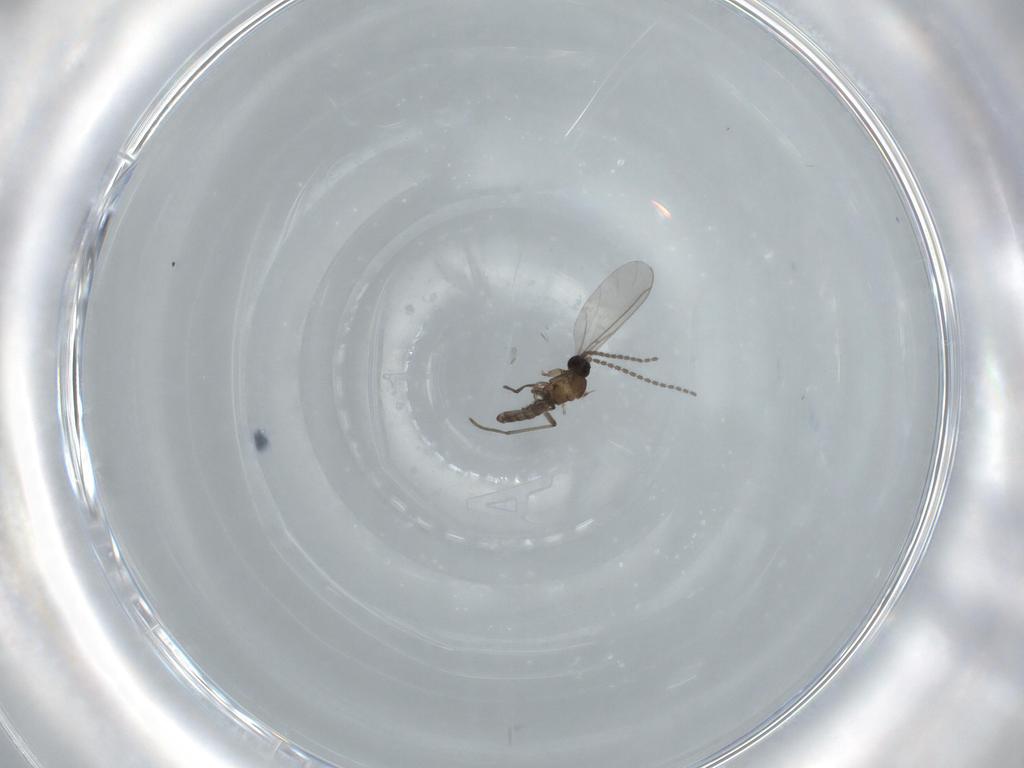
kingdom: Animalia
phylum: Arthropoda
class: Insecta
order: Diptera
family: Sciaridae
